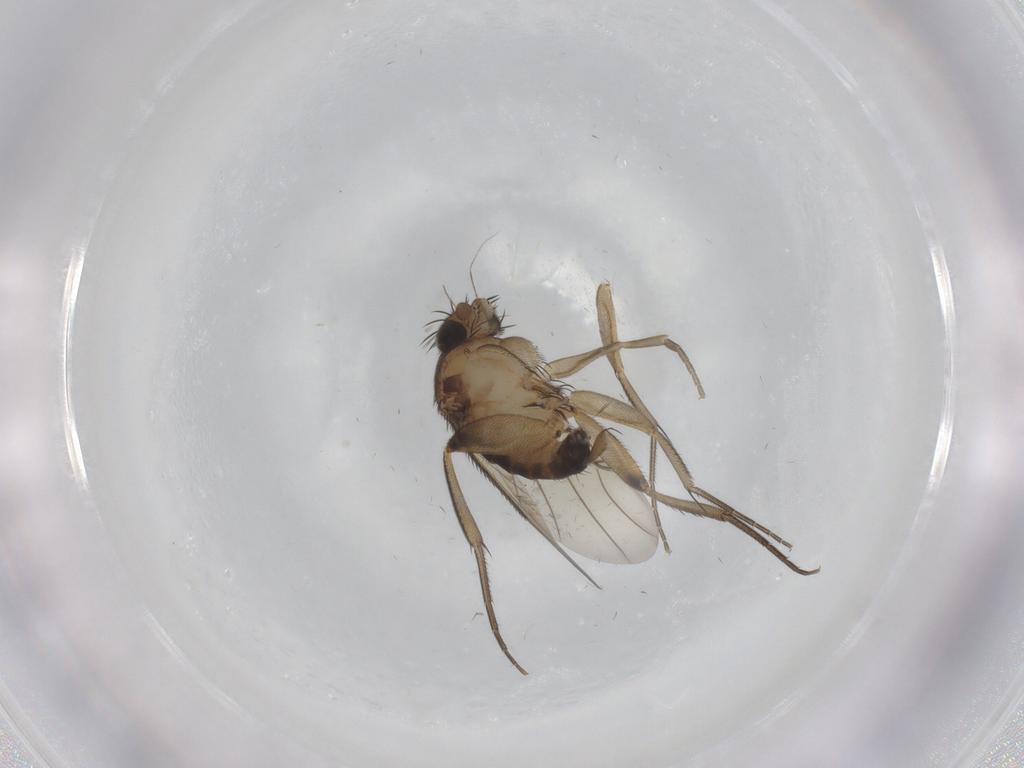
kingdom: Animalia
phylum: Arthropoda
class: Insecta
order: Diptera
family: Phoridae
